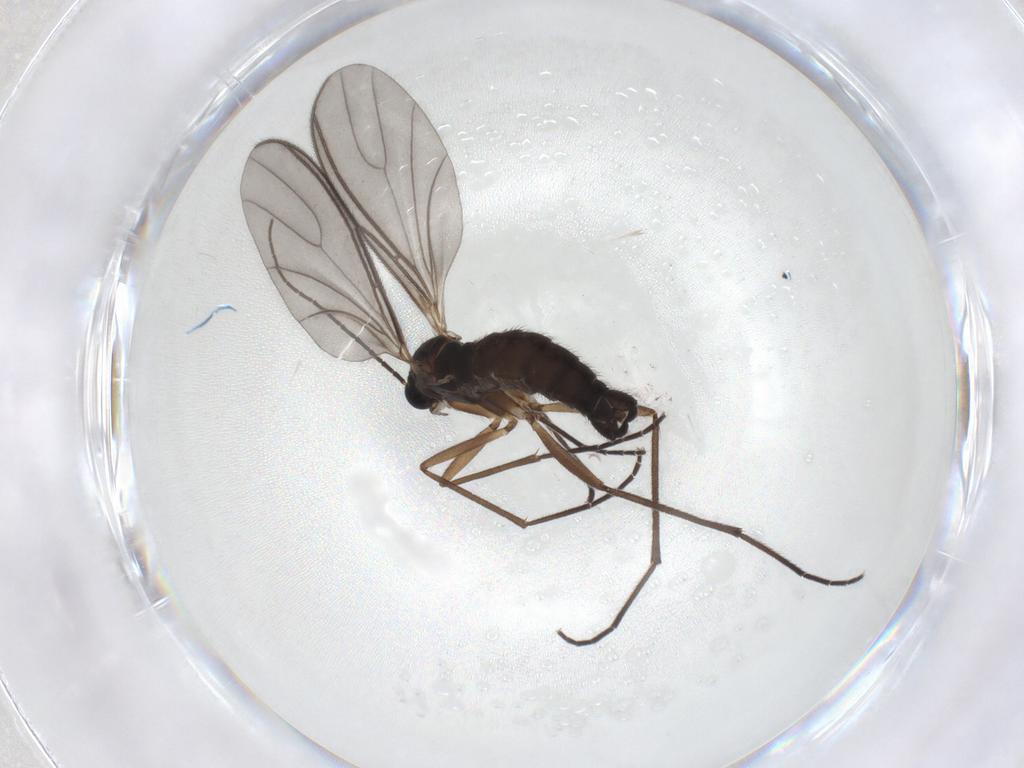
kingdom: Animalia
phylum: Arthropoda
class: Insecta
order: Diptera
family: Sciaridae
